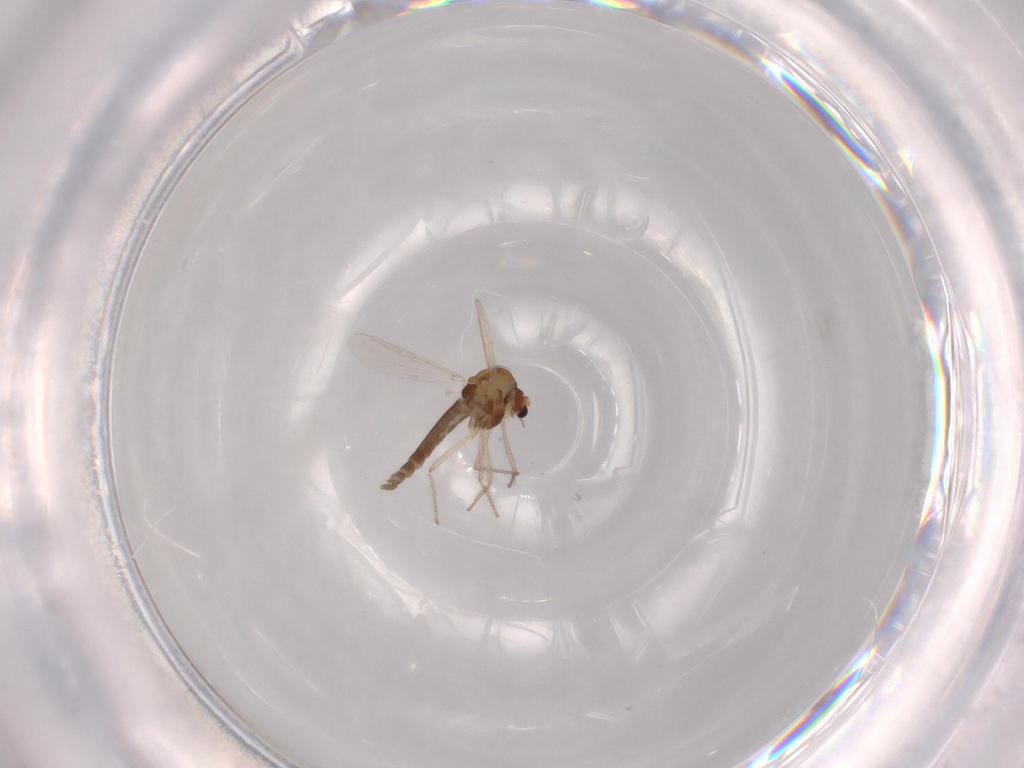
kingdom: Animalia
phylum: Arthropoda
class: Insecta
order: Diptera
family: Chironomidae
